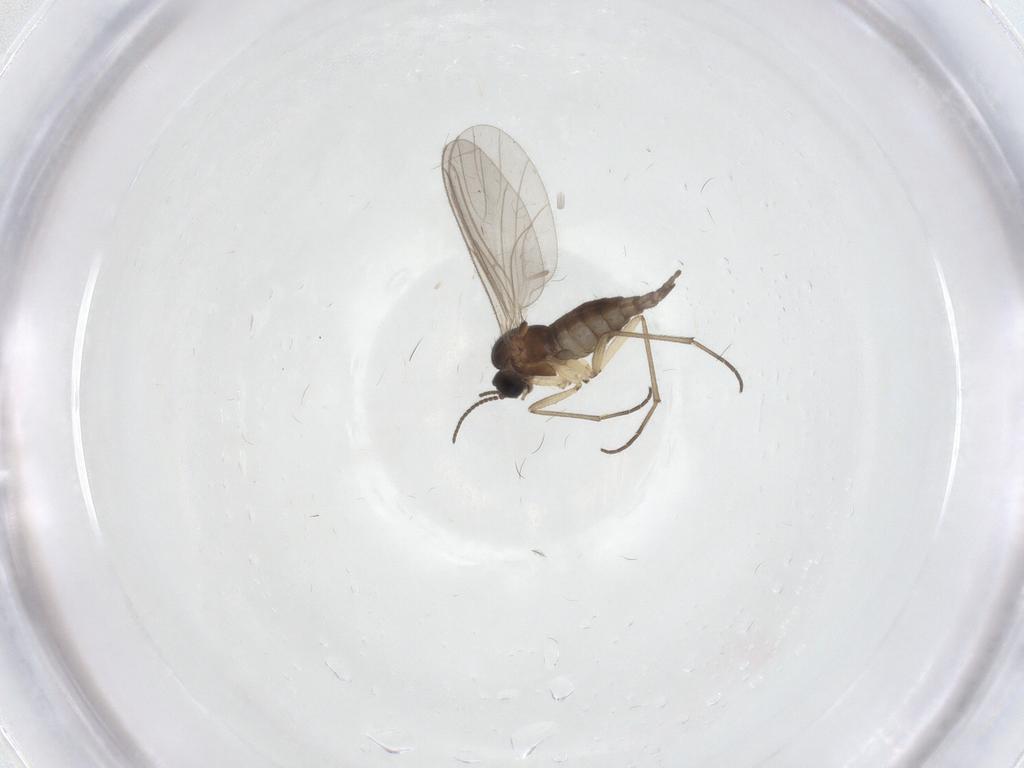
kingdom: Animalia
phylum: Arthropoda
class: Insecta
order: Diptera
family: Sciaridae
